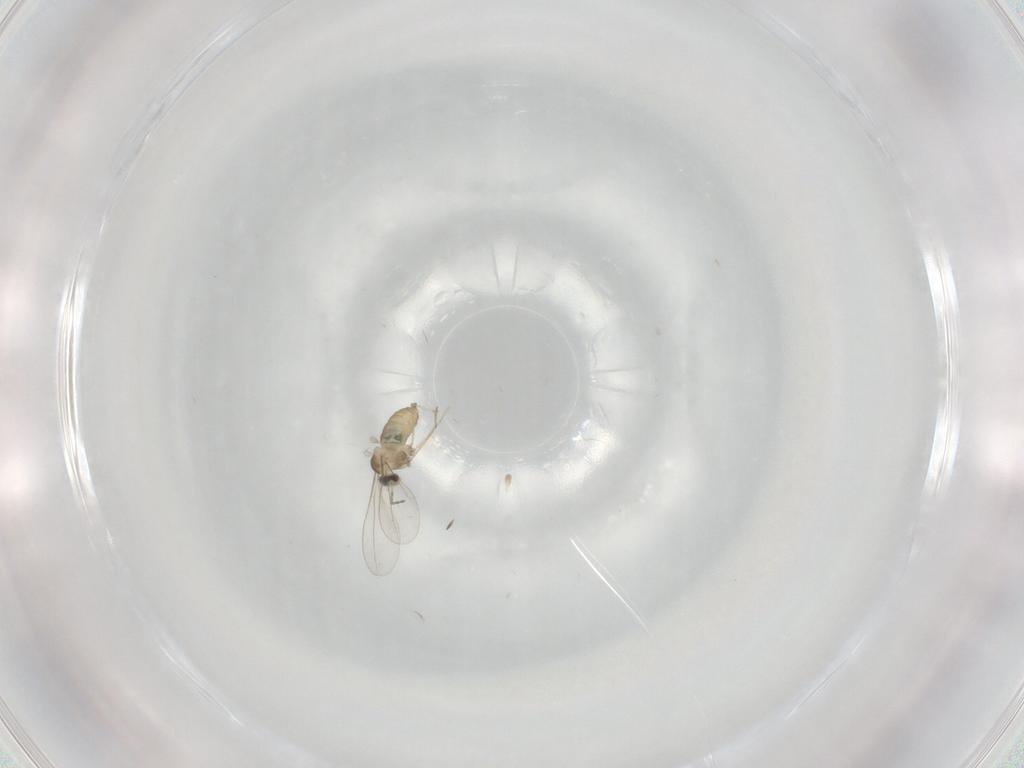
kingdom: Animalia
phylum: Arthropoda
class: Insecta
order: Diptera
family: Cecidomyiidae
